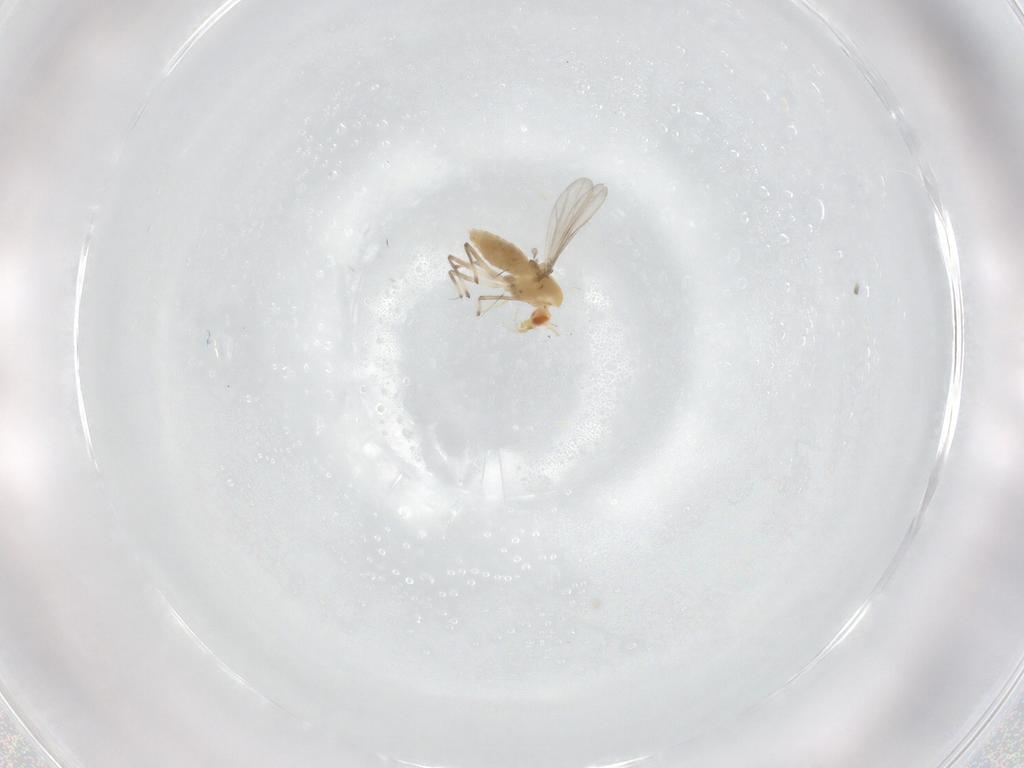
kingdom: Animalia
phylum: Arthropoda
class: Insecta
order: Diptera
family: Chironomidae
